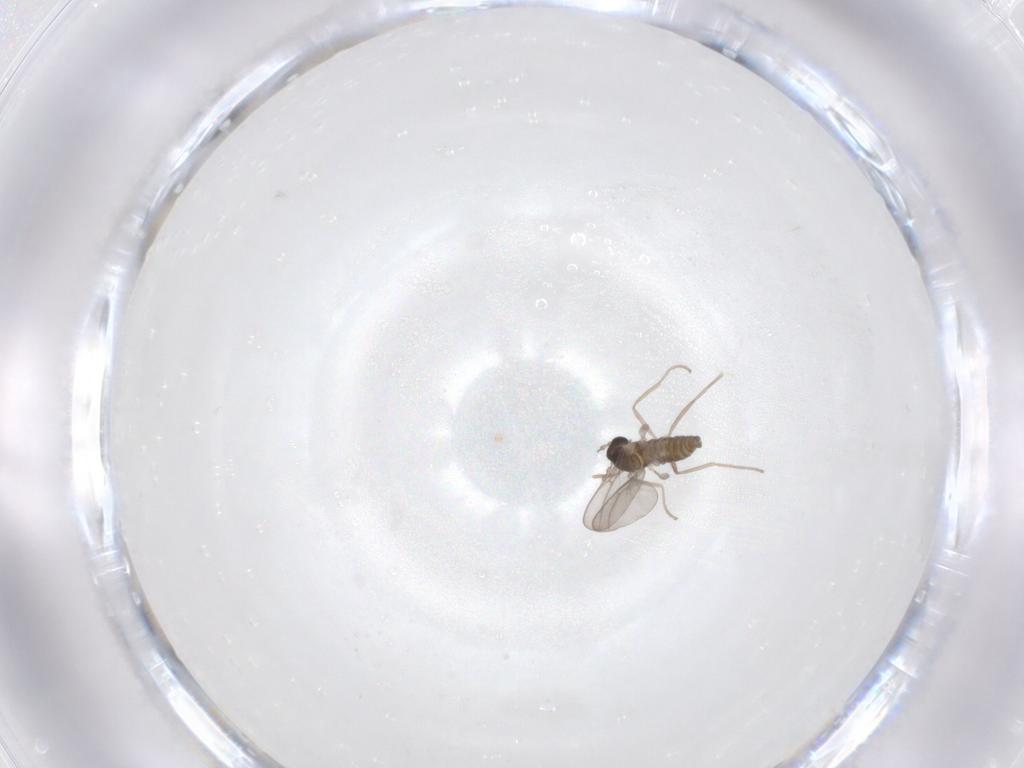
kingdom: Animalia
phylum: Arthropoda
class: Insecta
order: Diptera
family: Cecidomyiidae
